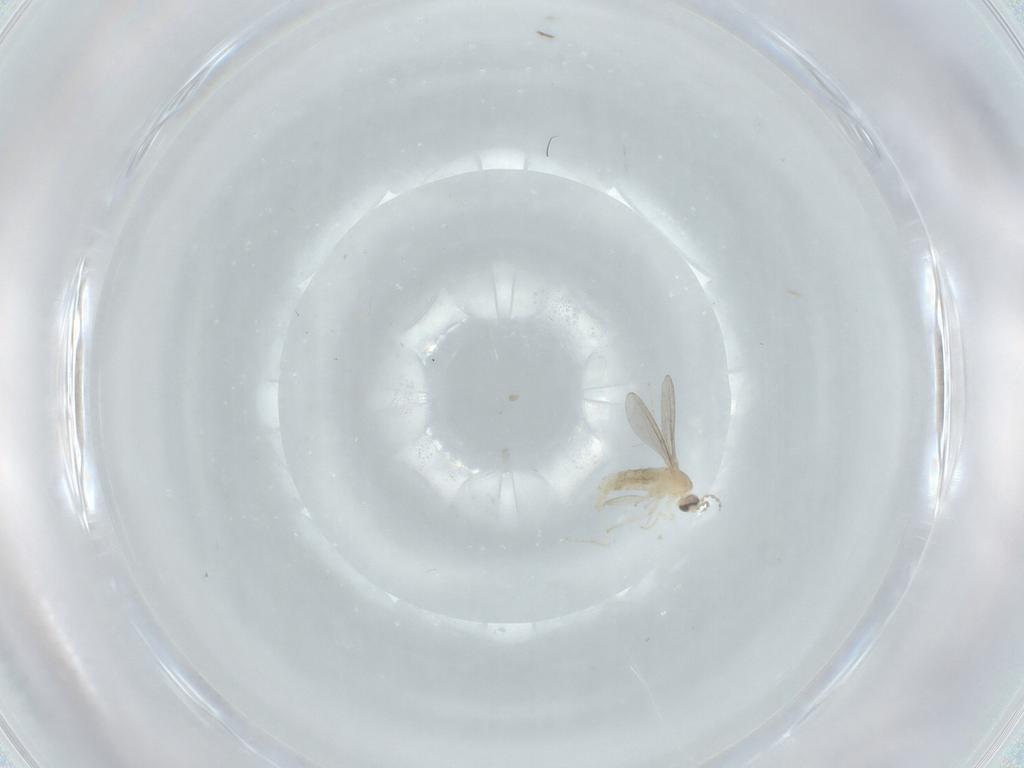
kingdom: Animalia
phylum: Arthropoda
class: Insecta
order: Diptera
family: Cecidomyiidae
